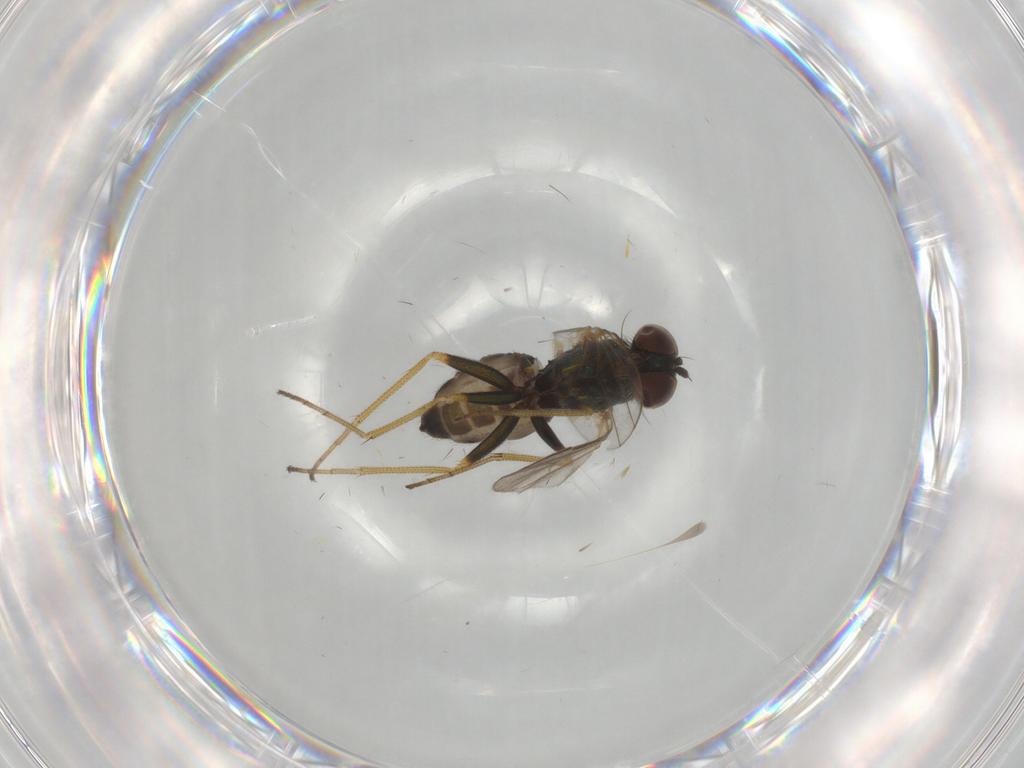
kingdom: Animalia
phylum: Arthropoda
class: Insecta
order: Diptera
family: Dolichopodidae
